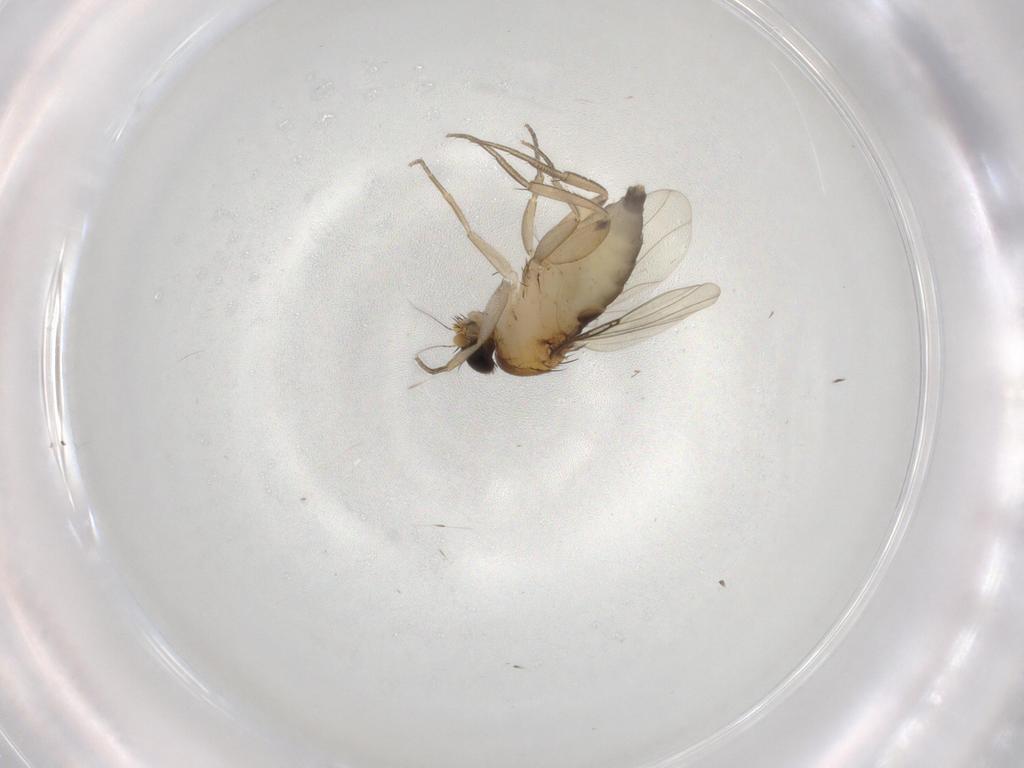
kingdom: Animalia
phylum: Arthropoda
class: Insecta
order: Diptera
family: Phoridae
